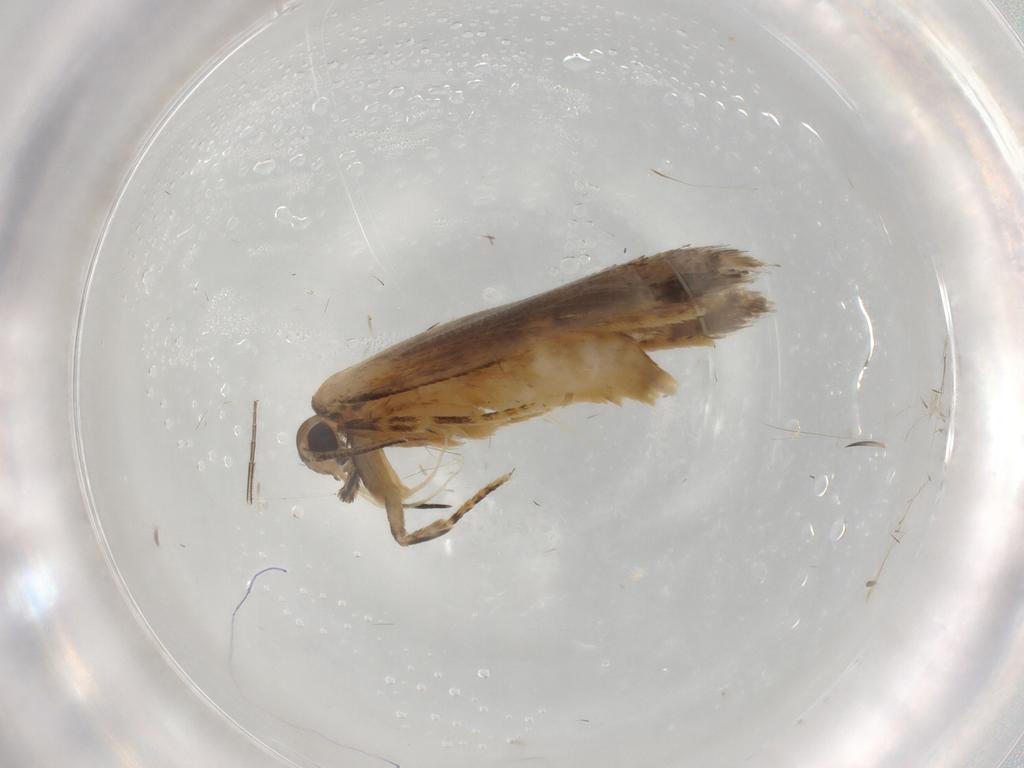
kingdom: Animalia
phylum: Arthropoda
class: Insecta
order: Lepidoptera
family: Autostichidae
